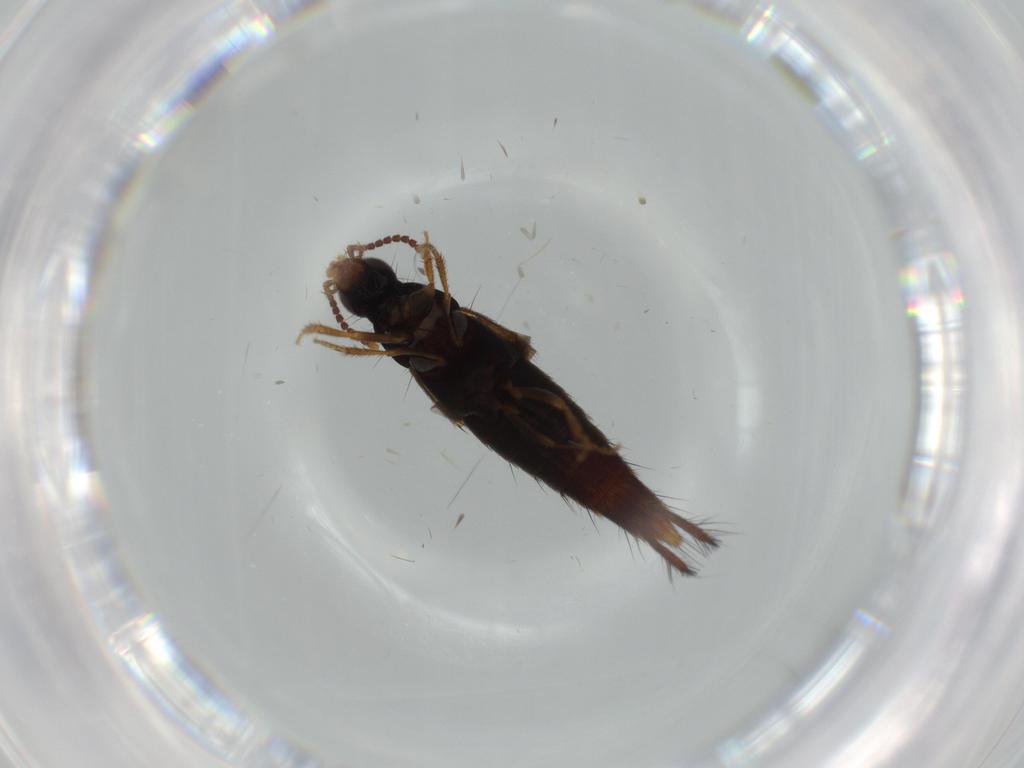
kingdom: Animalia
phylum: Arthropoda
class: Insecta
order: Coleoptera
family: Staphylinidae
